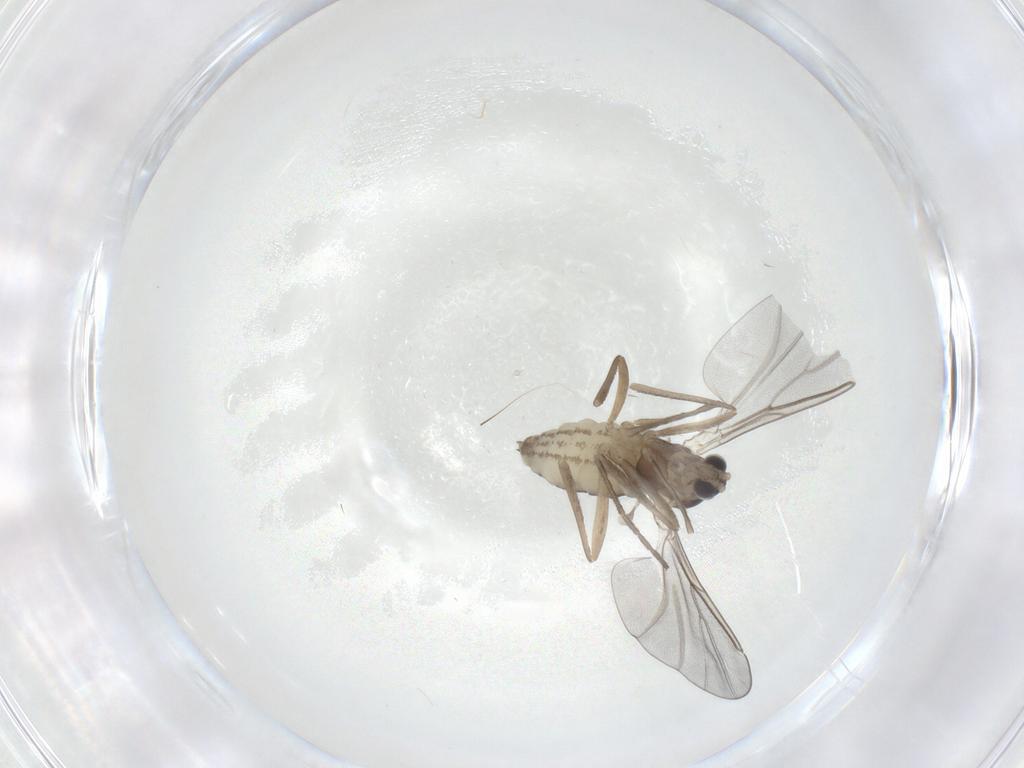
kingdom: Animalia
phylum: Arthropoda
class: Insecta
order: Diptera
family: Cecidomyiidae
